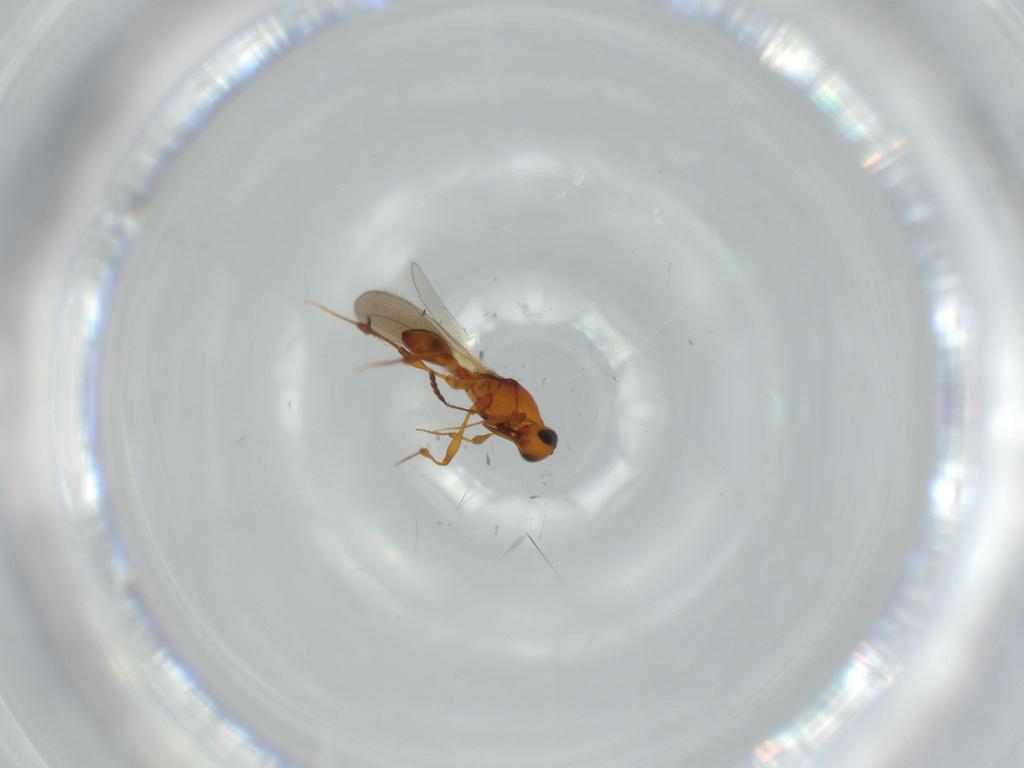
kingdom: Animalia
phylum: Arthropoda
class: Insecta
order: Hymenoptera
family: Platygastridae
